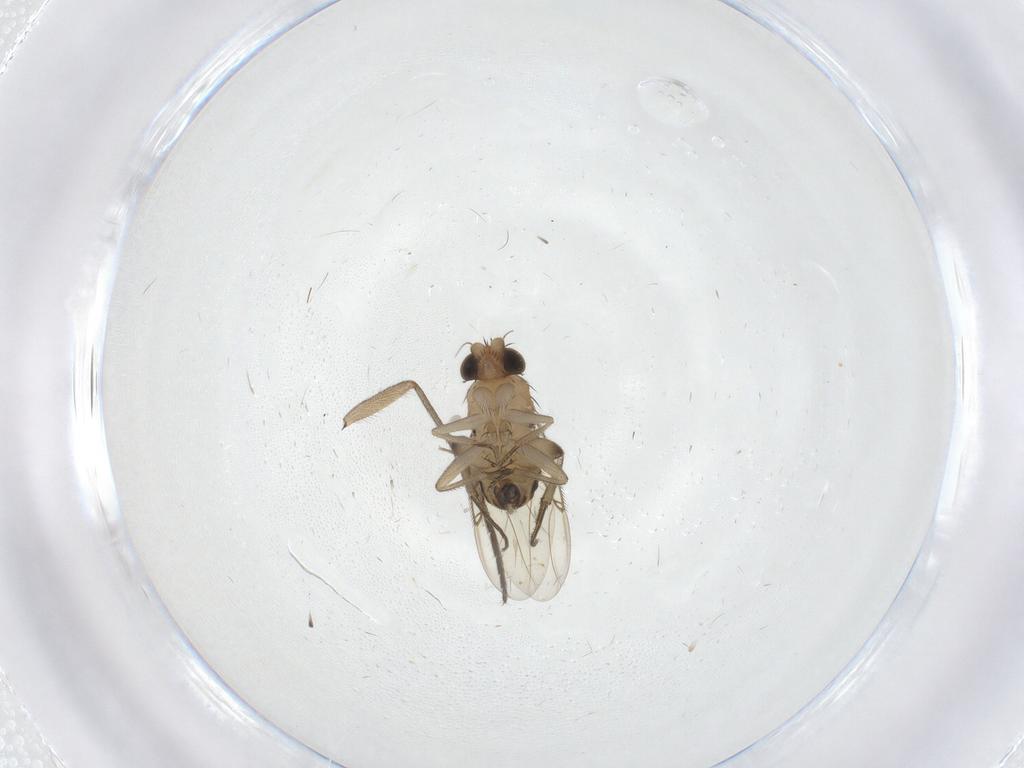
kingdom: Animalia
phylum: Arthropoda
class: Insecta
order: Diptera
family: Phoridae
